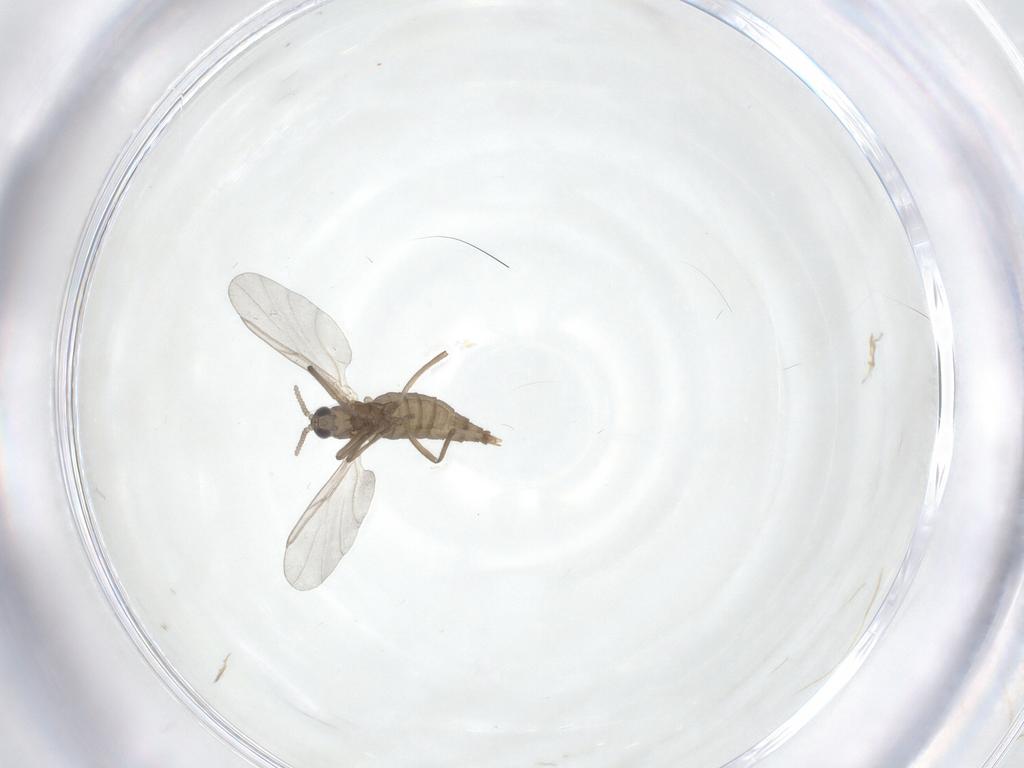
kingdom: Animalia
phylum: Arthropoda
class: Insecta
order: Diptera
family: Cecidomyiidae
